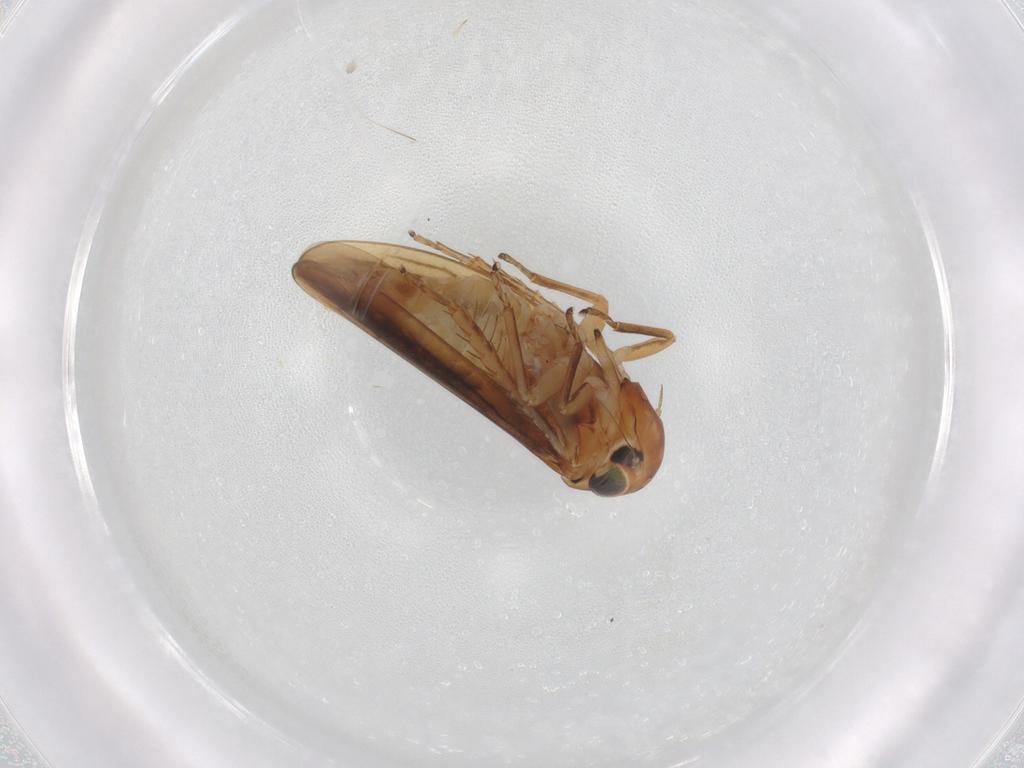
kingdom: Animalia
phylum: Arthropoda
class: Insecta
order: Hemiptera
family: Cicadellidae
